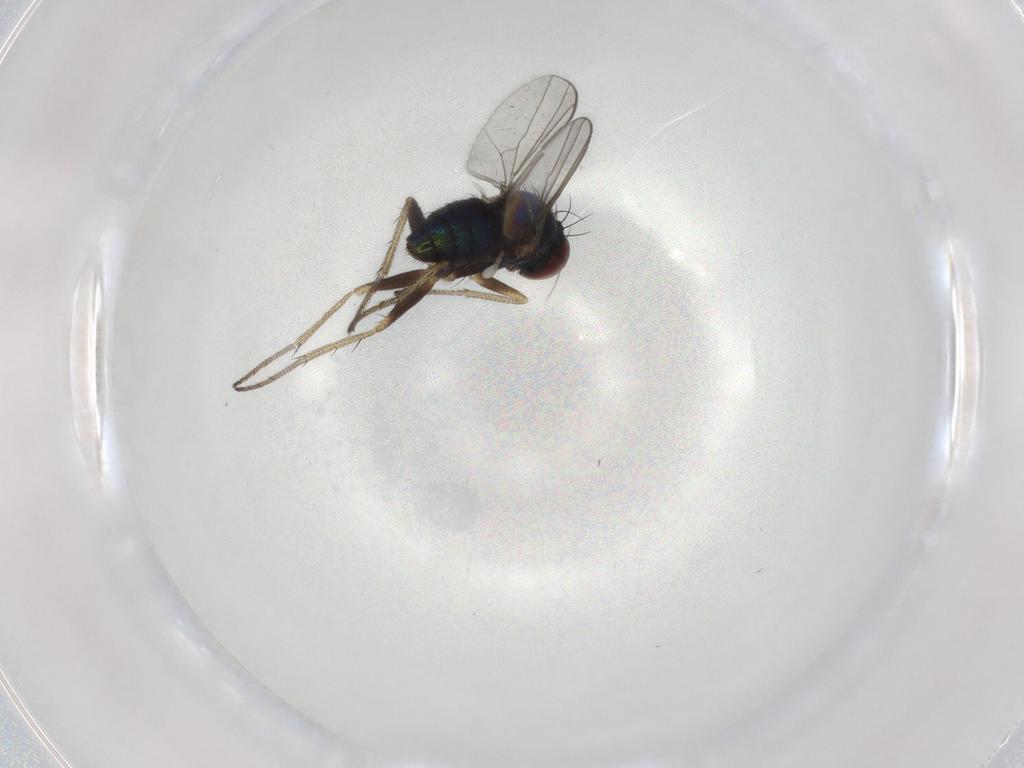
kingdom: Animalia
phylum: Arthropoda
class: Insecta
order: Diptera
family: Dolichopodidae
